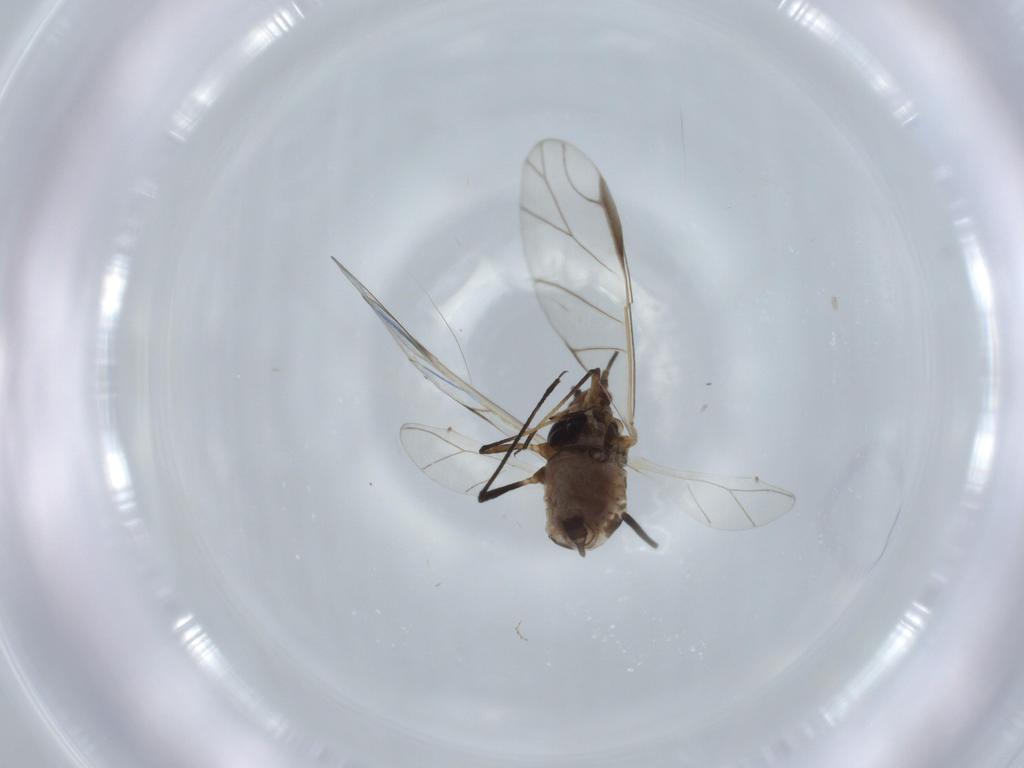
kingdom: Animalia
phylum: Arthropoda
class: Insecta
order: Hemiptera
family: Aphididae
